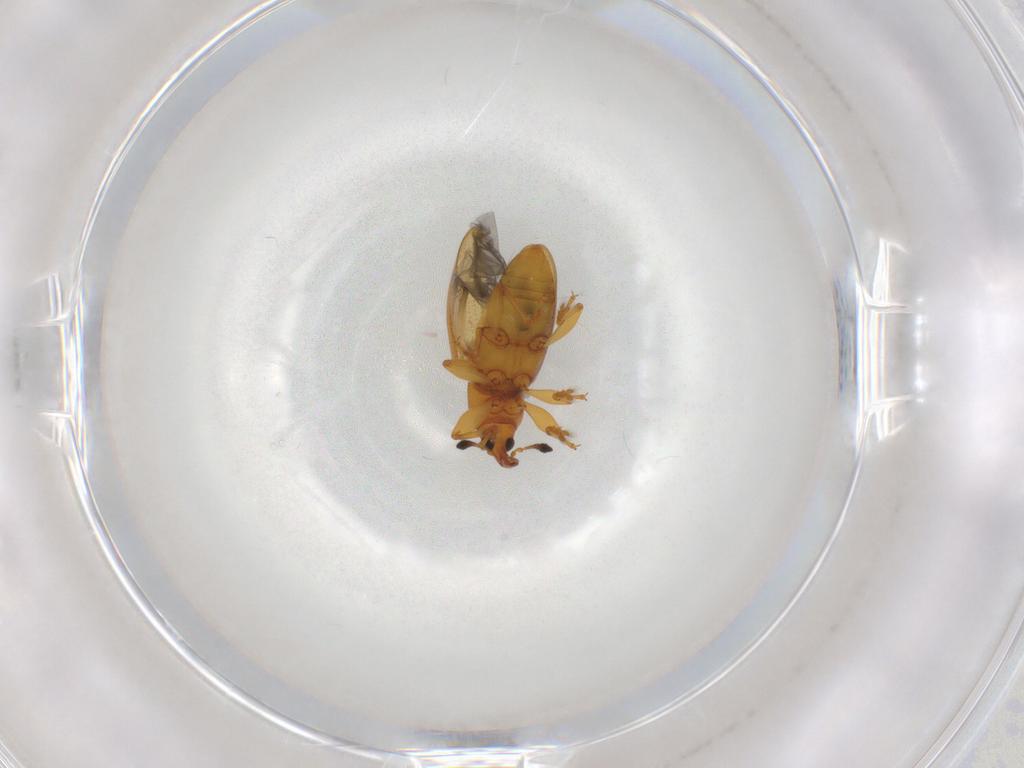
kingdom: Animalia
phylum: Arthropoda
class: Insecta
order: Coleoptera
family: Curculionidae
